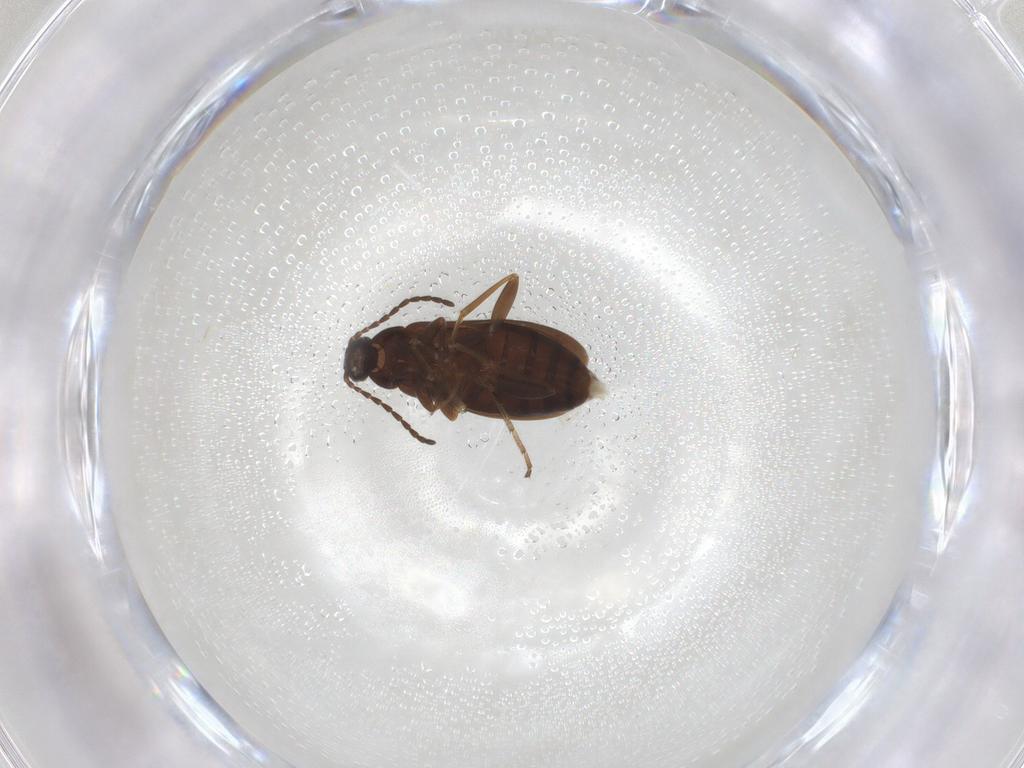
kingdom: Animalia
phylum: Arthropoda
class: Insecta
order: Coleoptera
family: Scraptiidae
